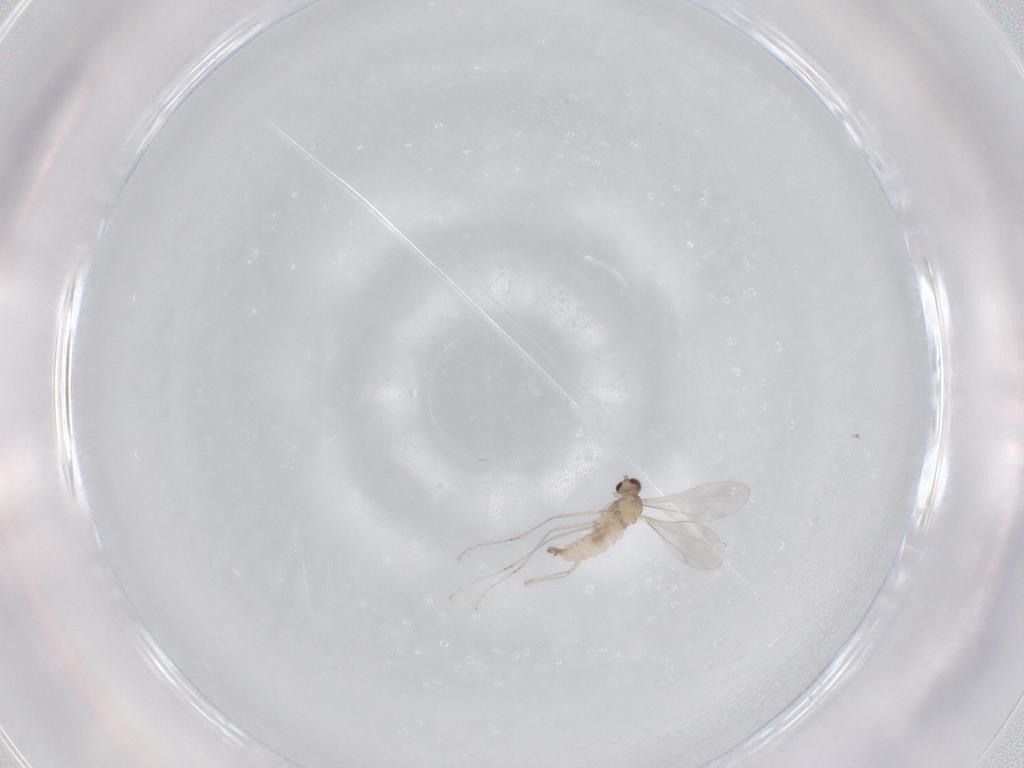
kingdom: Animalia
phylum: Arthropoda
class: Insecta
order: Diptera
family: Cecidomyiidae
